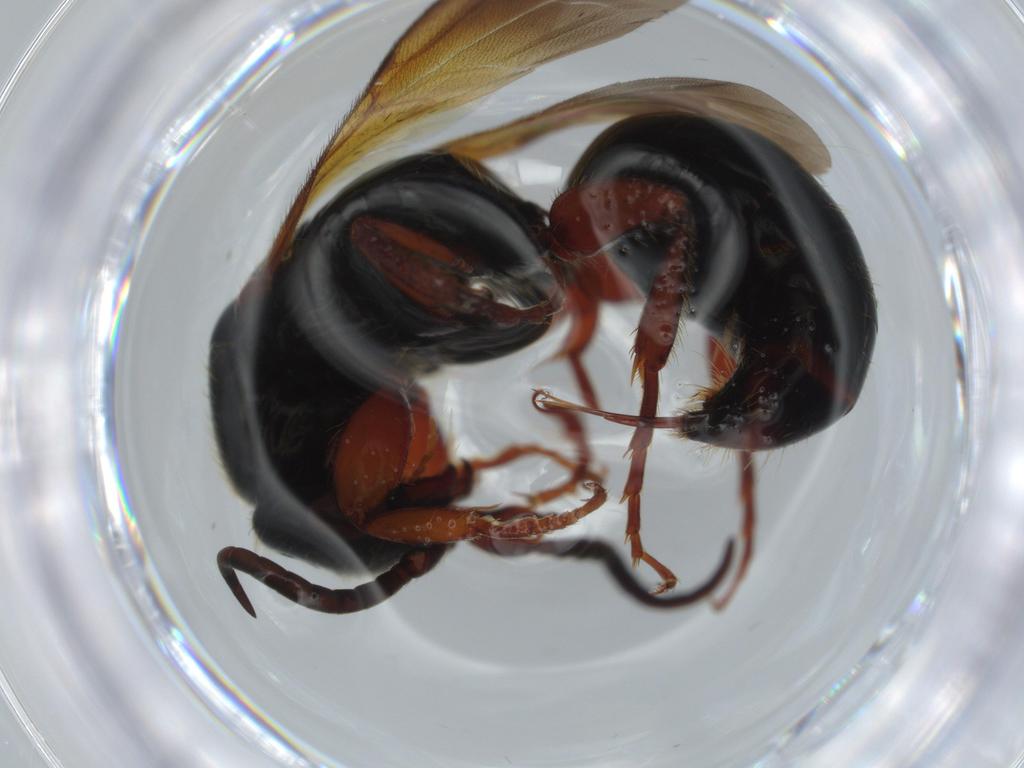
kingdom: Animalia
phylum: Arthropoda
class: Insecta
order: Hymenoptera
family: Bethylidae
